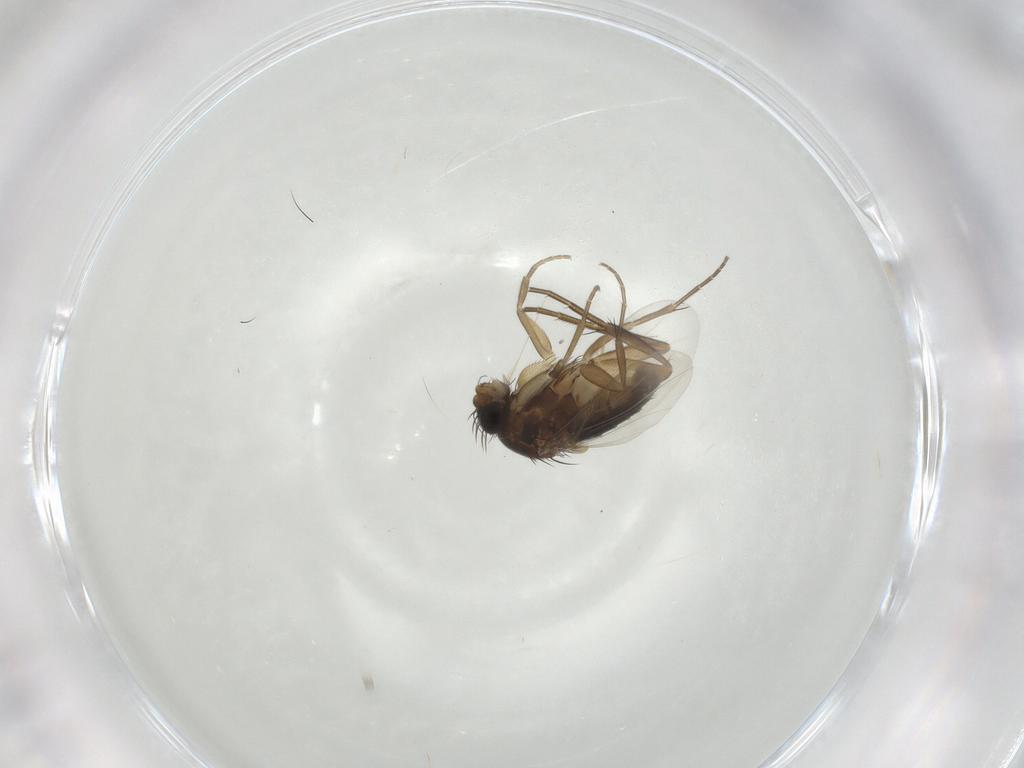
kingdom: Animalia
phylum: Arthropoda
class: Insecta
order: Diptera
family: Phoridae
